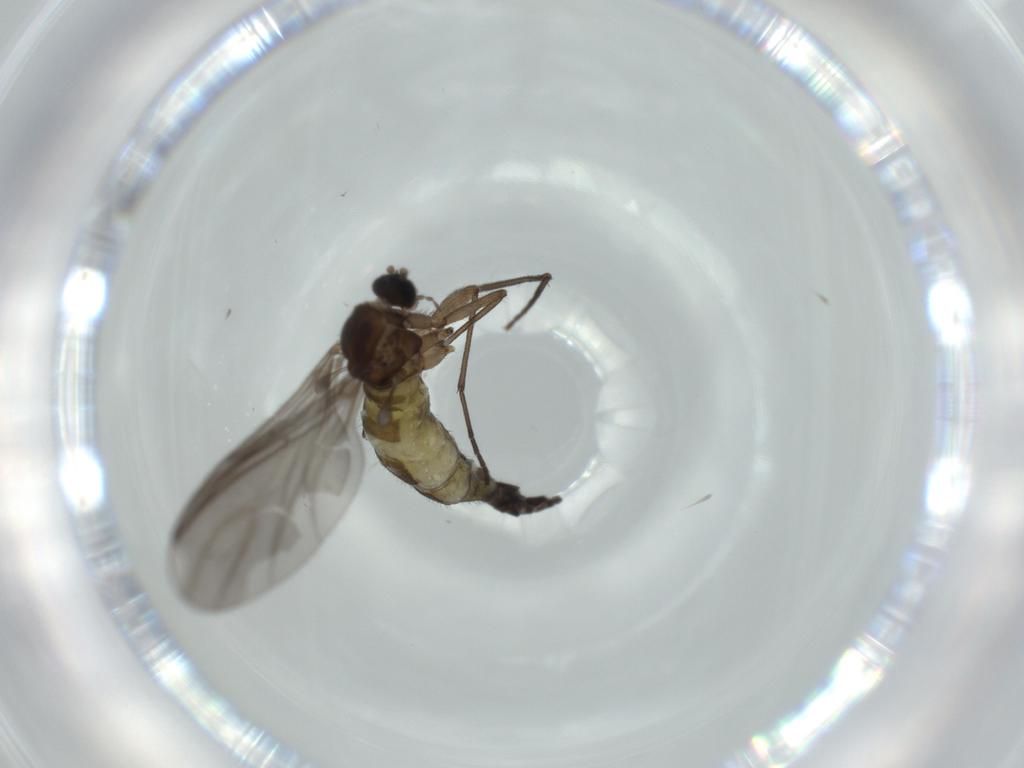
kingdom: Animalia
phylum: Arthropoda
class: Insecta
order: Diptera
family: Sciaridae
